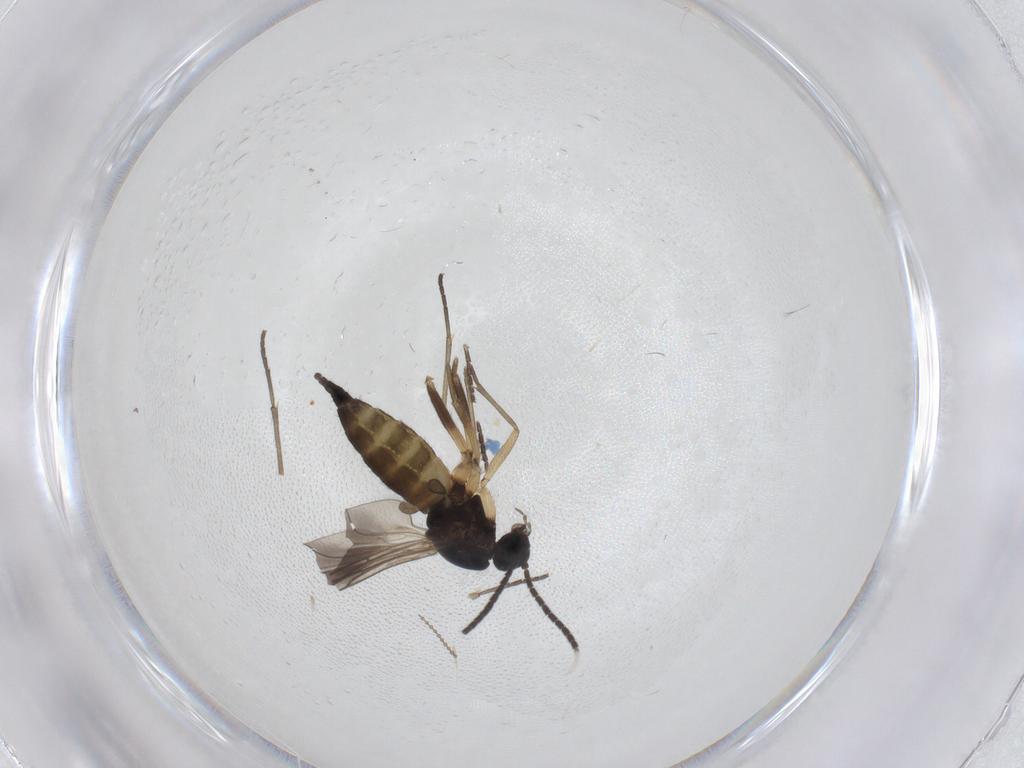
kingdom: Animalia
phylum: Arthropoda
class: Insecta
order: Diptera
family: Sciaridae
